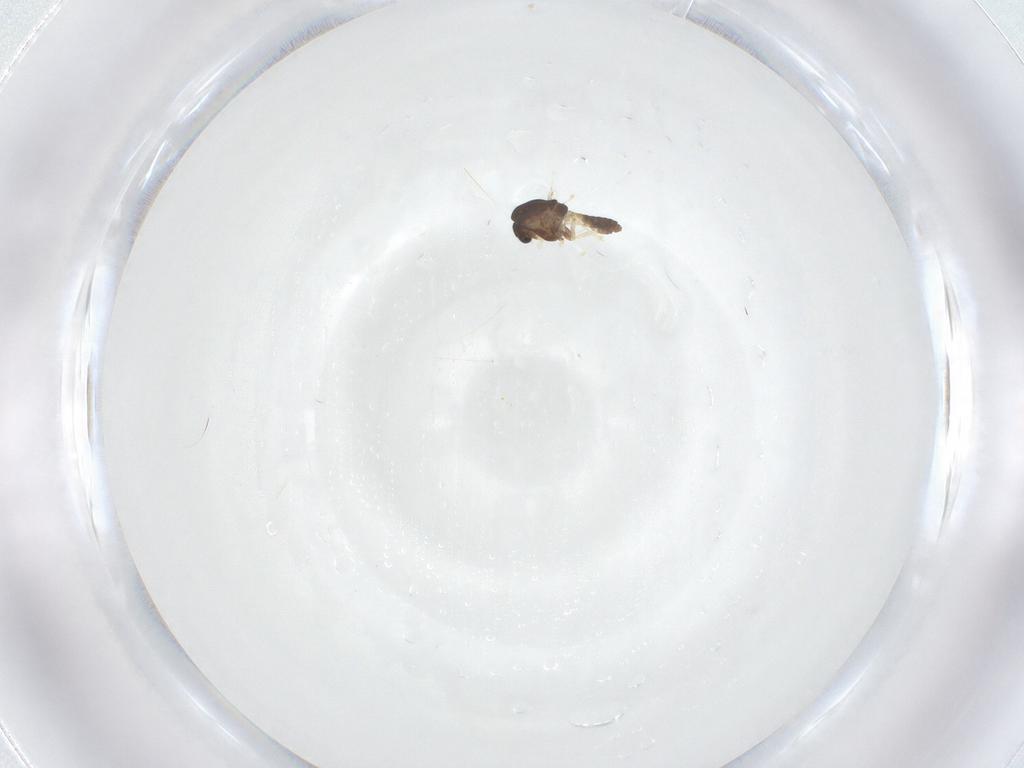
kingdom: Animalia
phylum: Arthropoda
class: Insecta
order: Diptera
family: Chironomidae
